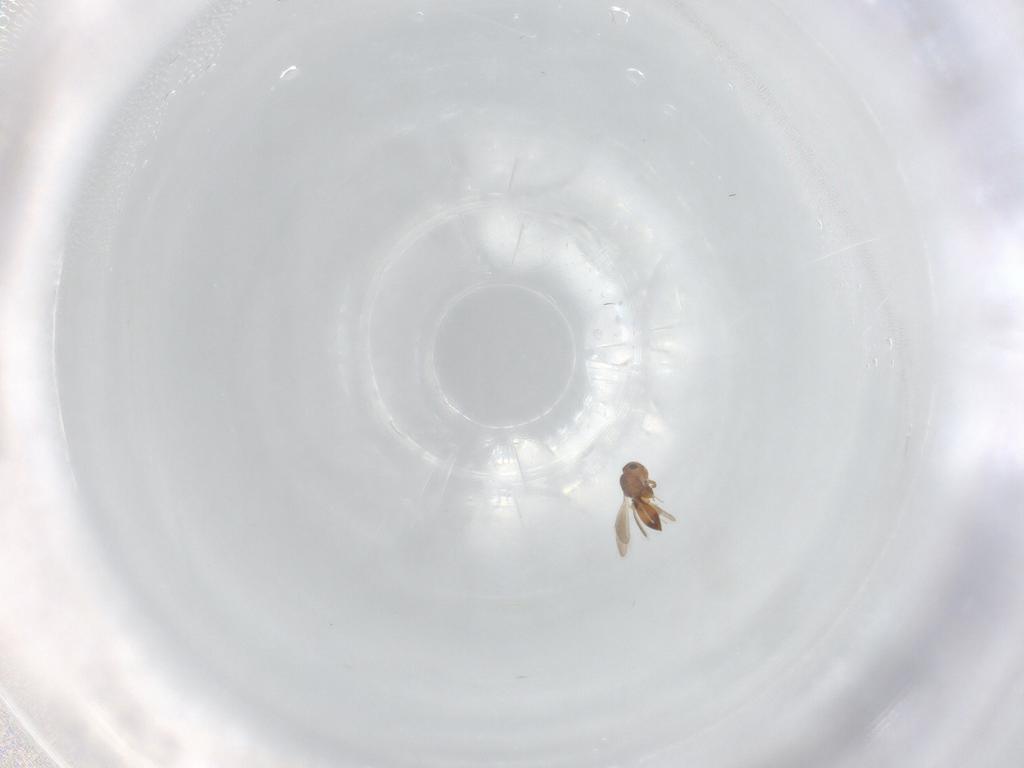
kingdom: Animalia
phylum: Arthropoda
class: Insecta
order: Hymenoptera
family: Platygastridae
